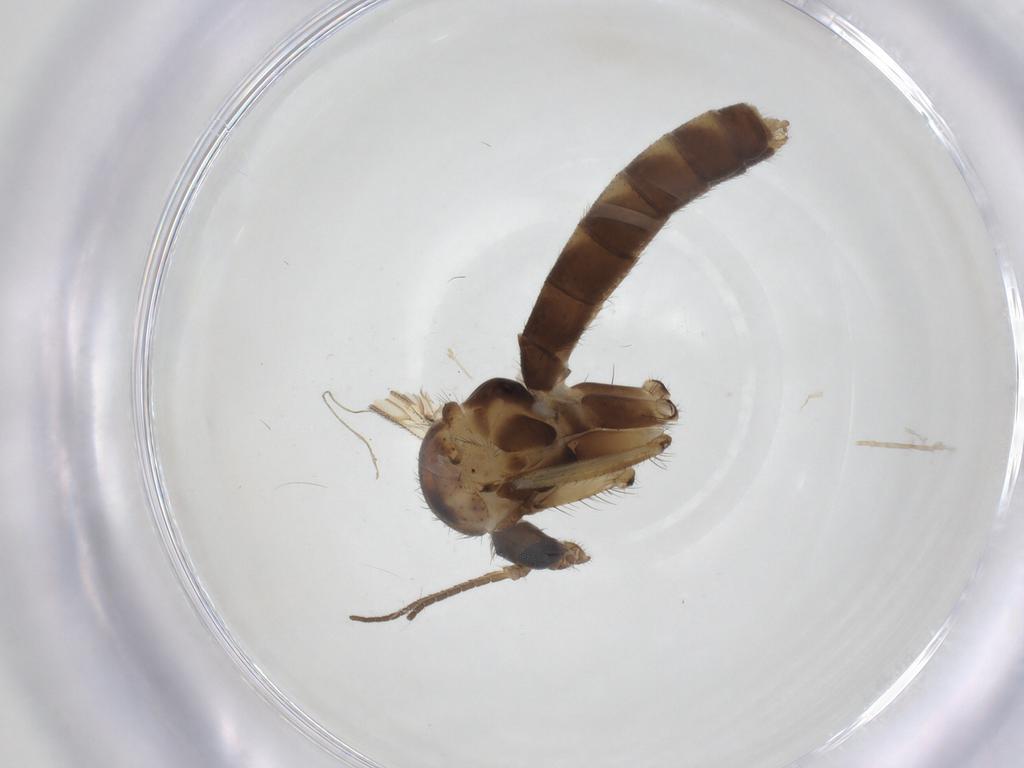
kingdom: Animalia
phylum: Arthropoda
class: Insecta
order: Diptera
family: Mycetophilidae
